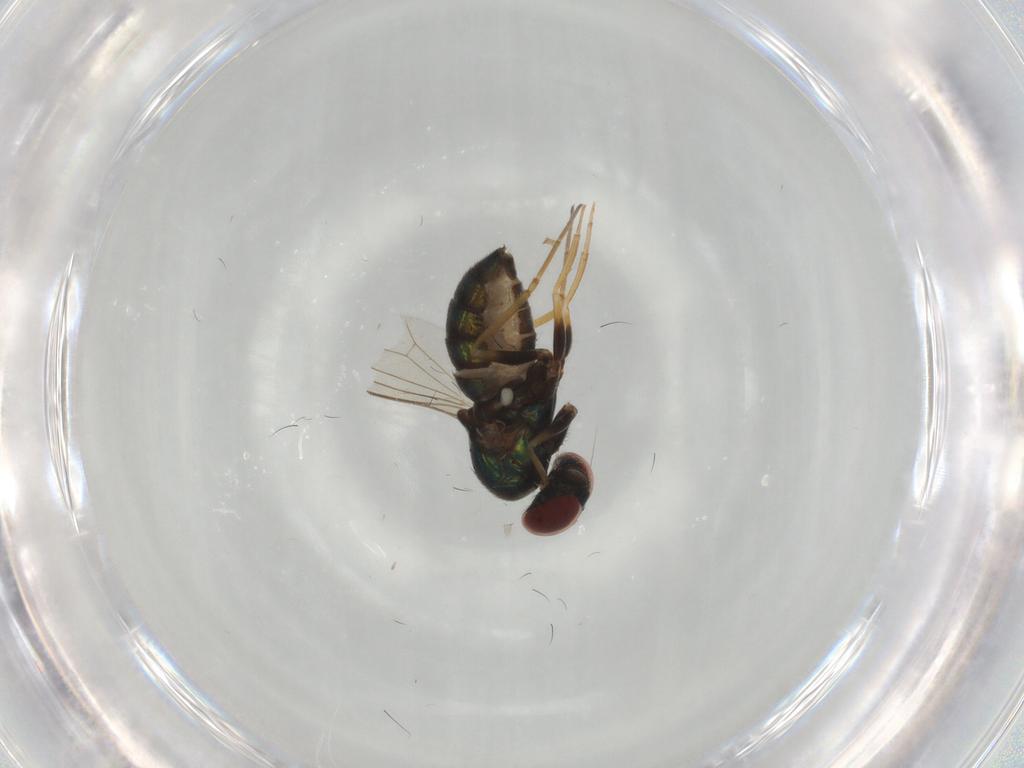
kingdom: Animalia
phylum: Arthropoda
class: Insecta
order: Diptera
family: Dolichopodidae
